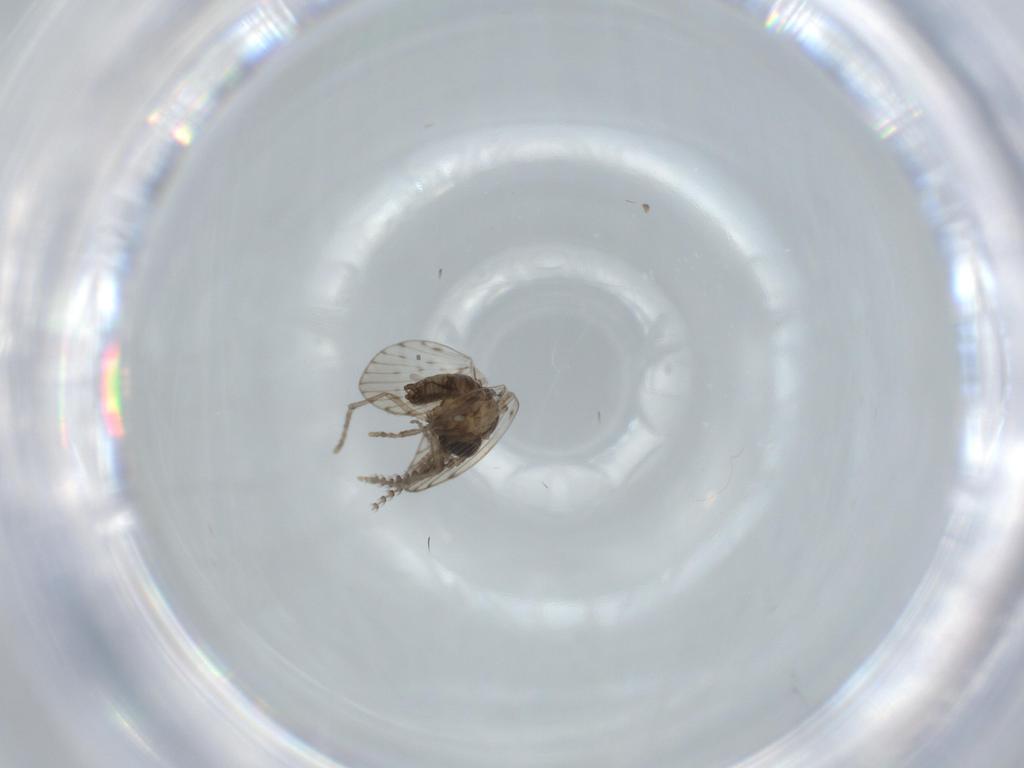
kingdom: Animalia
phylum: Arthropoda
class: Insecta
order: Diptera
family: Psychodidae
